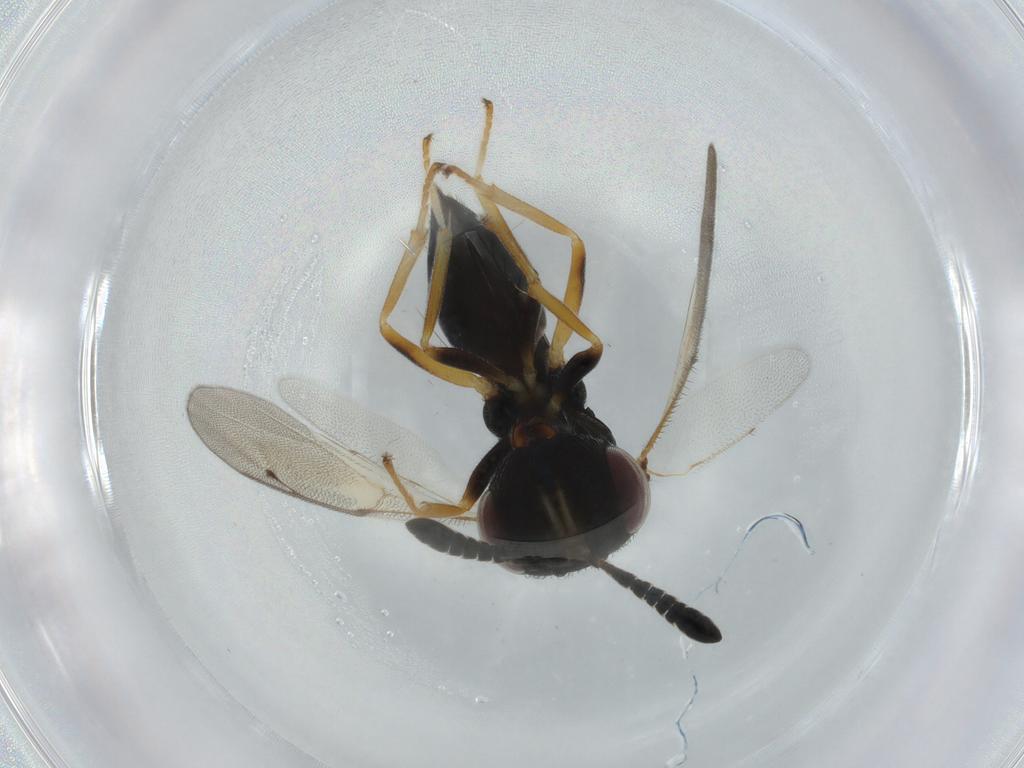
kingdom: Animalia
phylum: Arthropoda
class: Insecta
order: Hymenoptera
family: Pteromalidae
